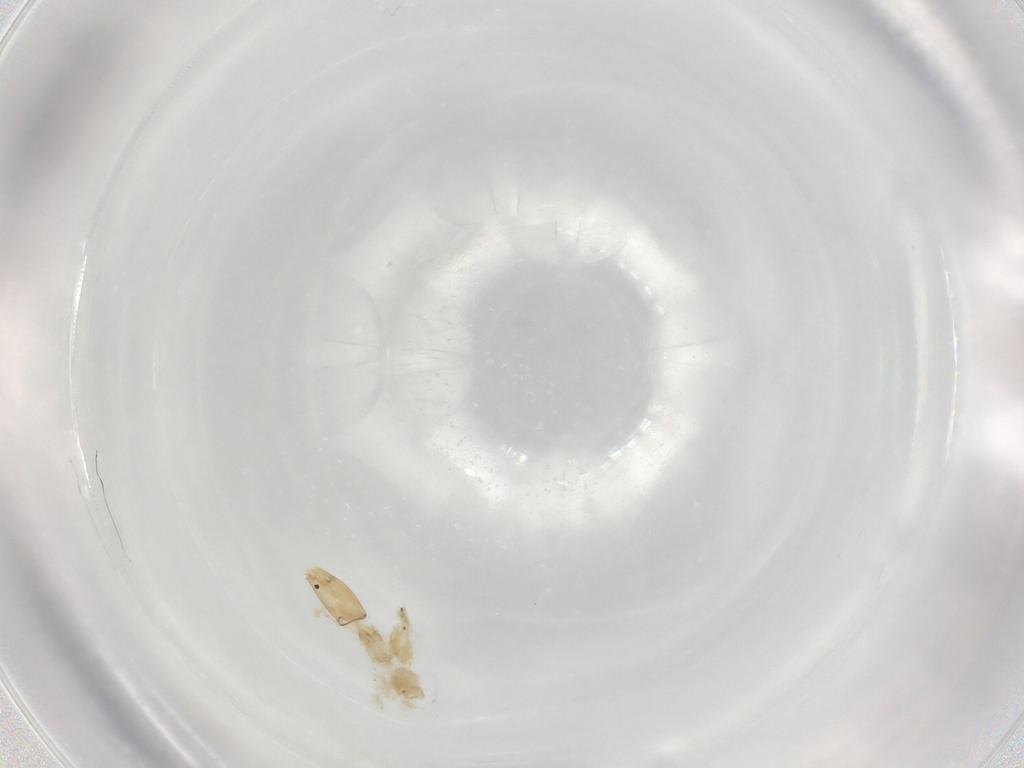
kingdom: Animalia
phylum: Arthropoda
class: Insecta
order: Diptera
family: Chironomidae
